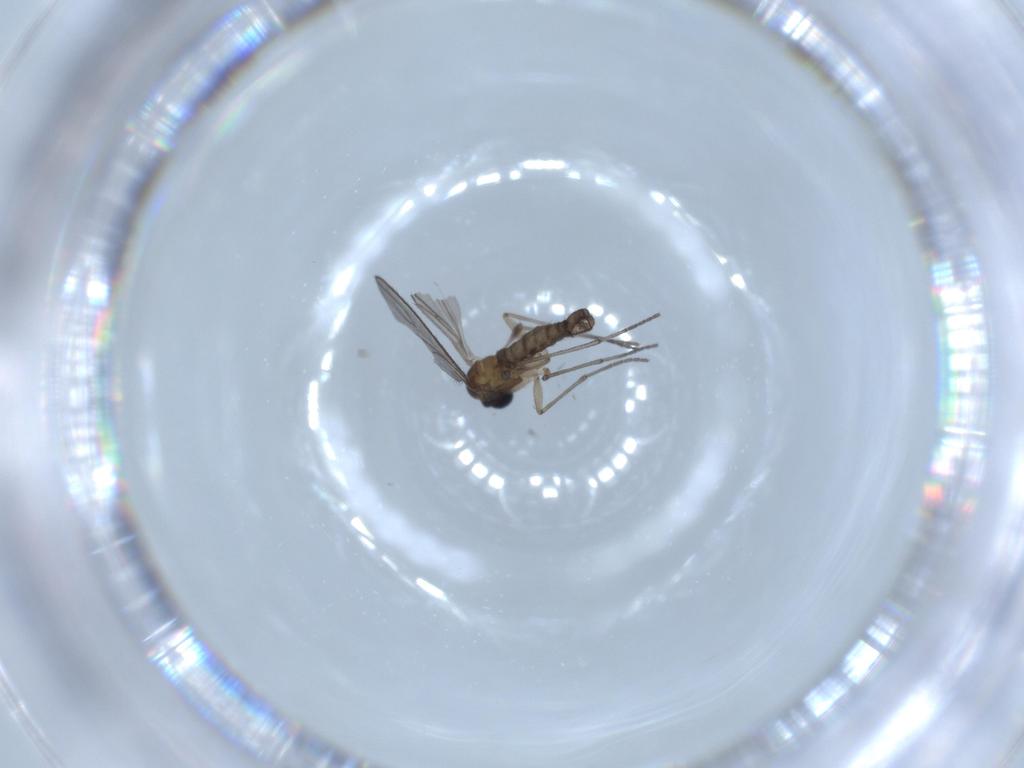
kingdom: Animalia
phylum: Arthropoda
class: Insecta
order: Diptera
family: Sciaridae
